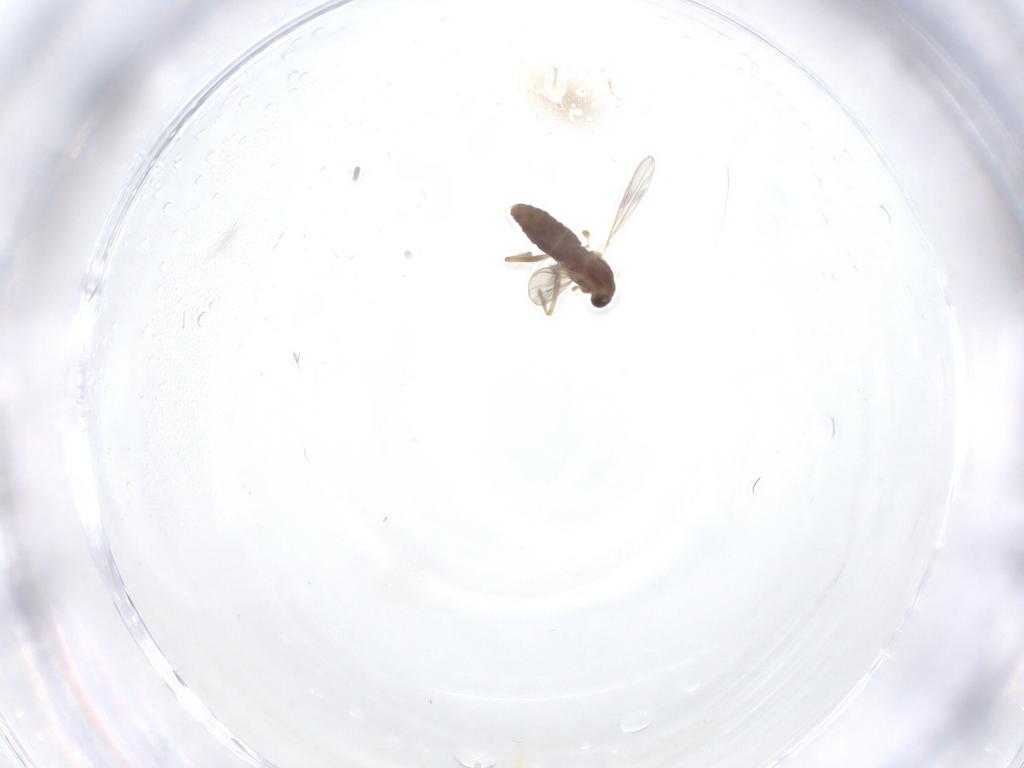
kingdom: Animalia
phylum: Arthropoda
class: Insecta
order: Diptera
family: Chironomidae
